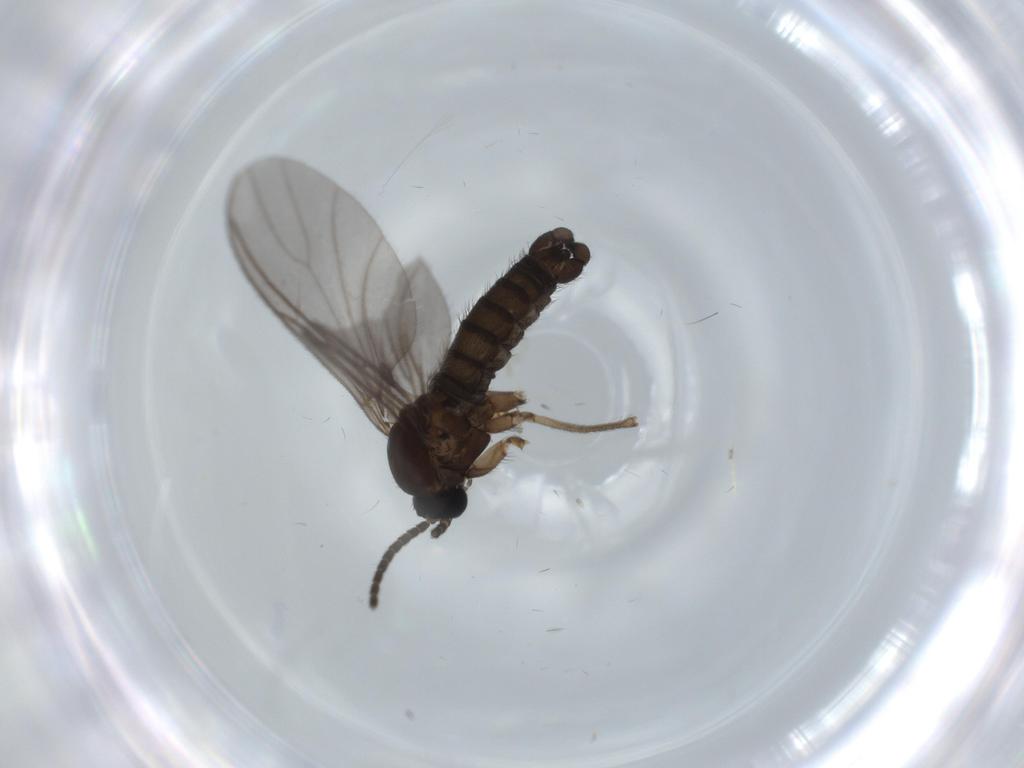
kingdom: Animalia
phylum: Arthropoda
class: Insecta
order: Diptera
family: Sciaridae
